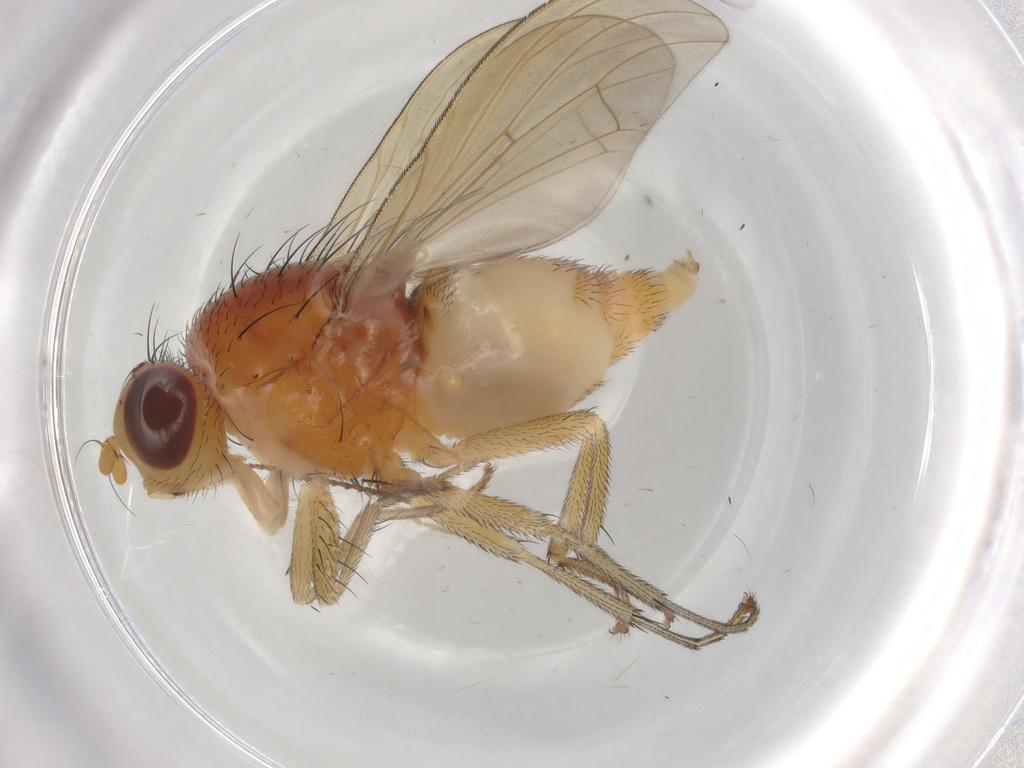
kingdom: Animalia
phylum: Arthropoda
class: Insecta
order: Diptera
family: Lauxaniidae
